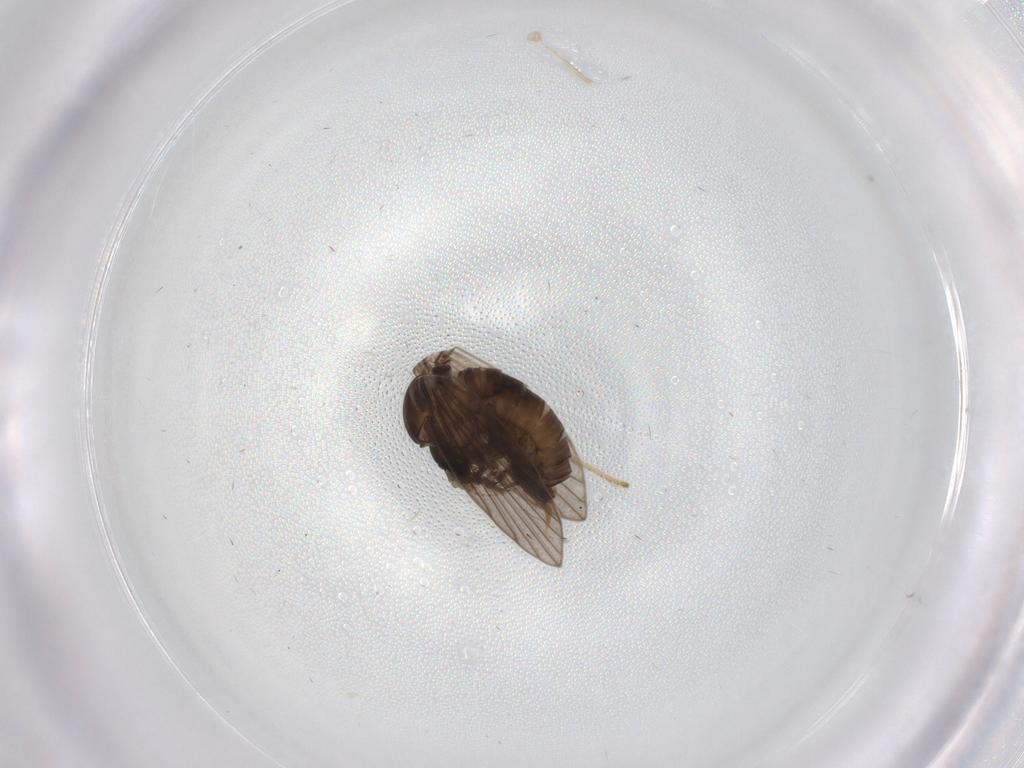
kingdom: Animalia
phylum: Arthropoda
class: Insecta
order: Diptera
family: Psychodidae
